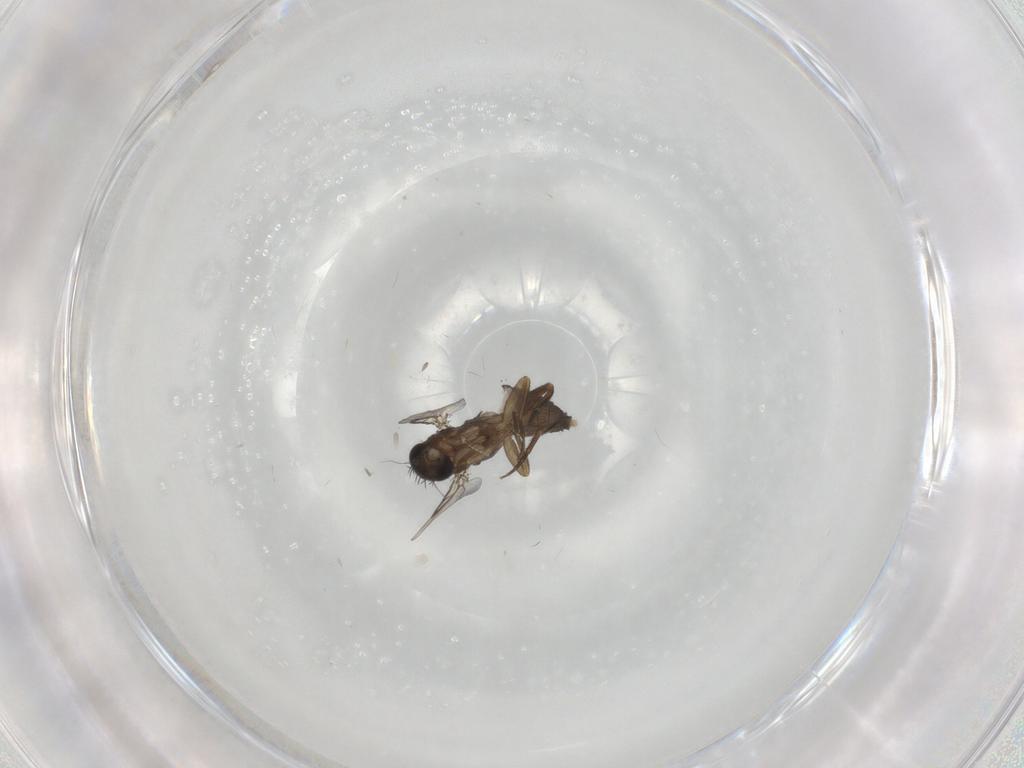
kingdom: Animalia
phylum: Arthropoda
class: Insecta
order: Diptera
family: Phoridae
